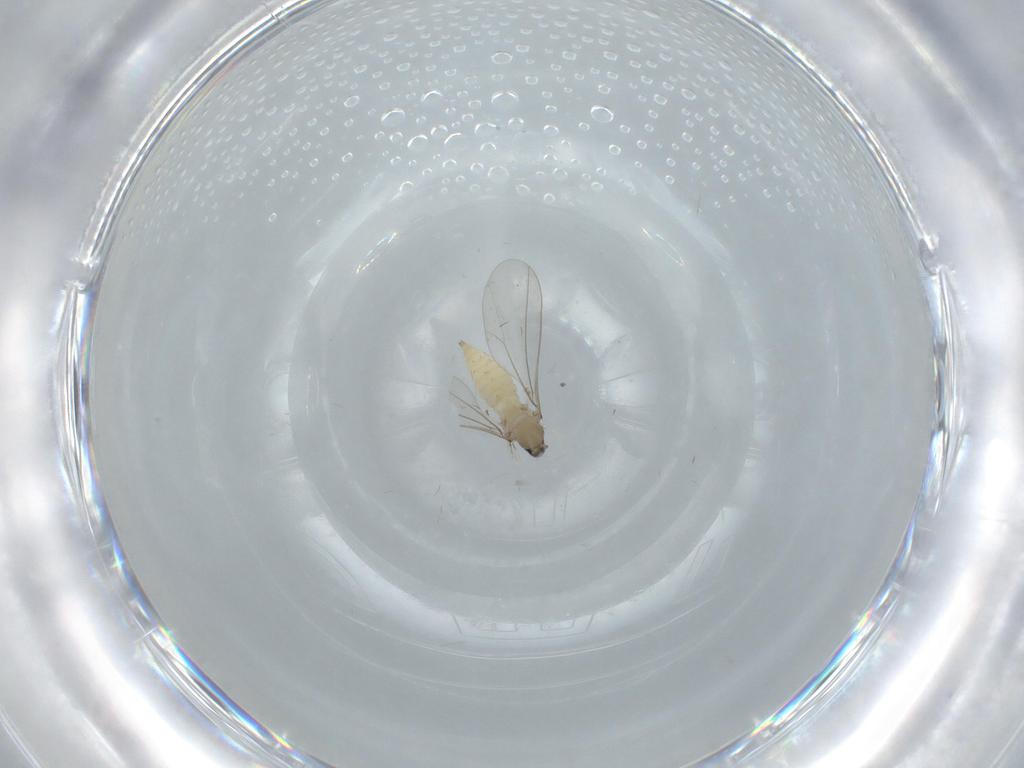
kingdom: Animalia
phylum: Arthropoda
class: Insecta
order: Diptera
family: Cecidomyiidae
